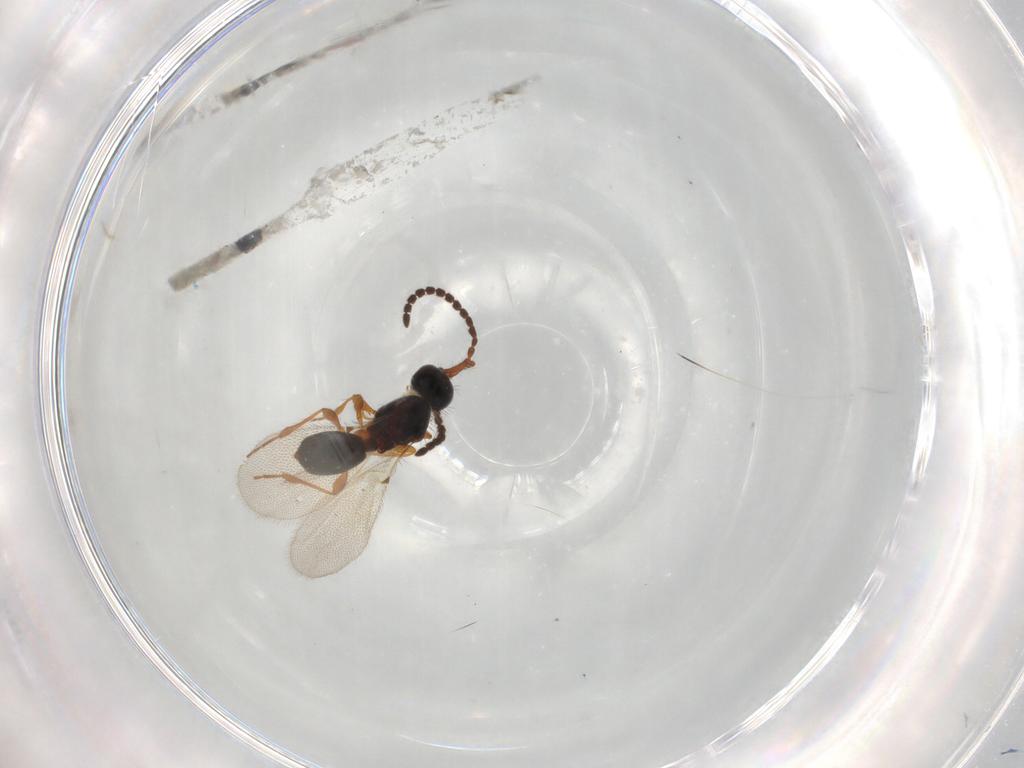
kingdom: Animalia
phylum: Arthropoda
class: Insecta
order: Hymenoptera
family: Diapriidae
